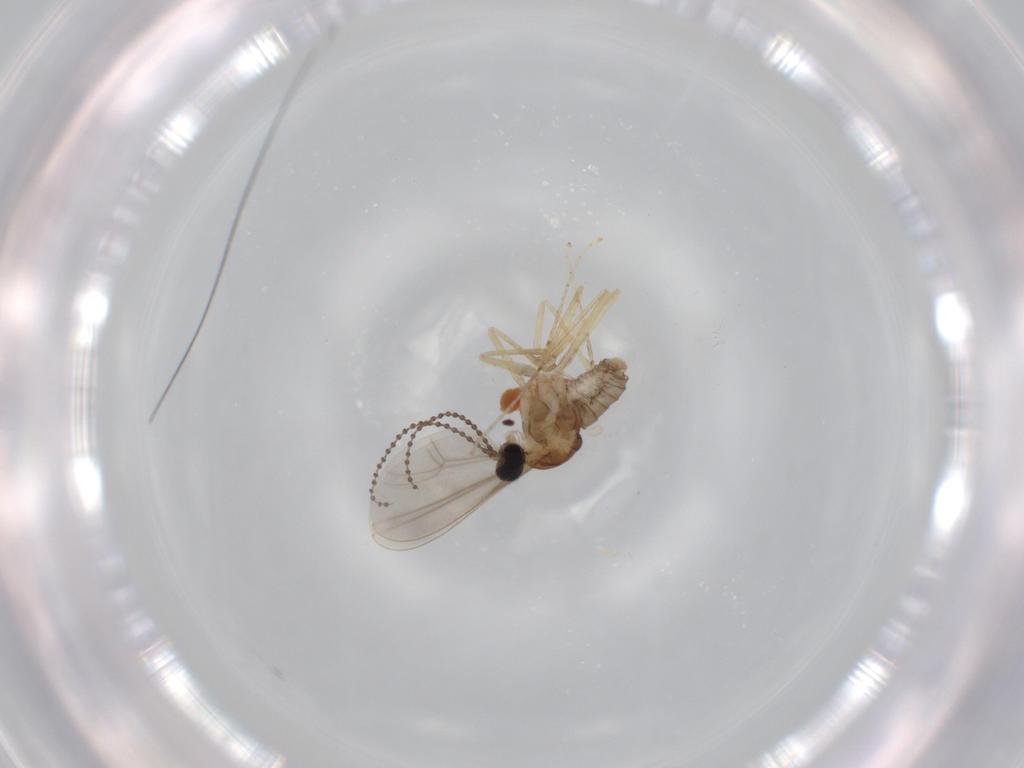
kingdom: Animalia
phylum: Arthropoda
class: Insecta
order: Diptera
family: Cecidomyiidae
